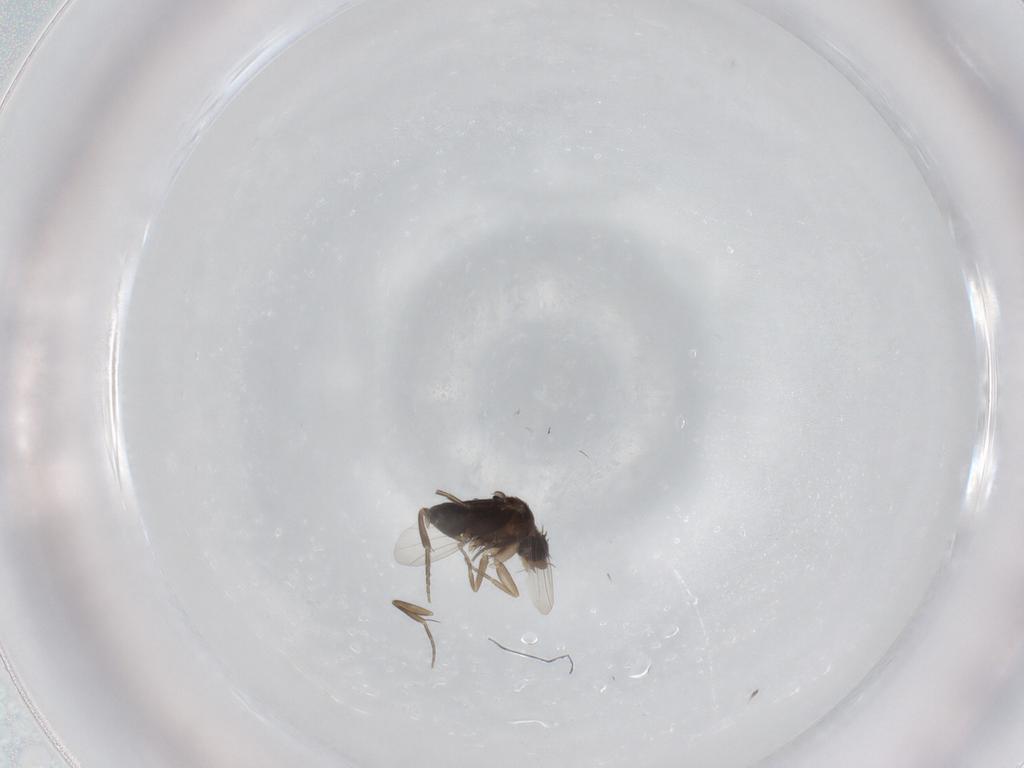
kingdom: Animalia
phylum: Arthropoda
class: Insecta
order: Diptera
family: Phoridae
